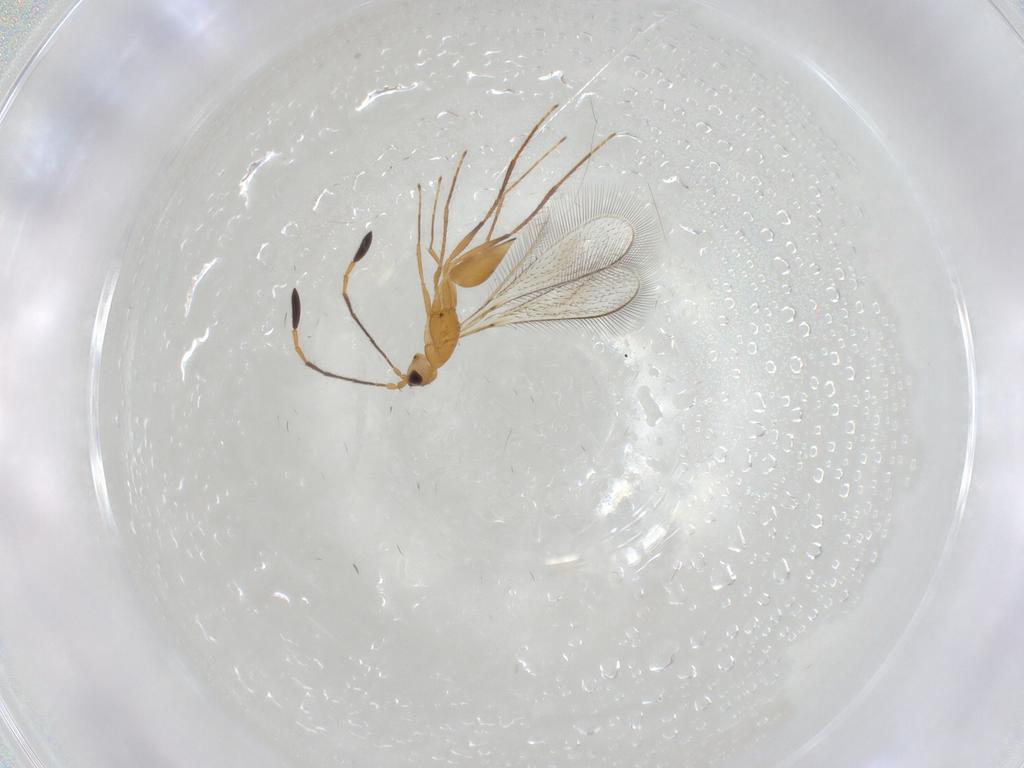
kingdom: Animalia
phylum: Arthropoda
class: Insecta
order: Hymenoptera
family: Mymaridae
